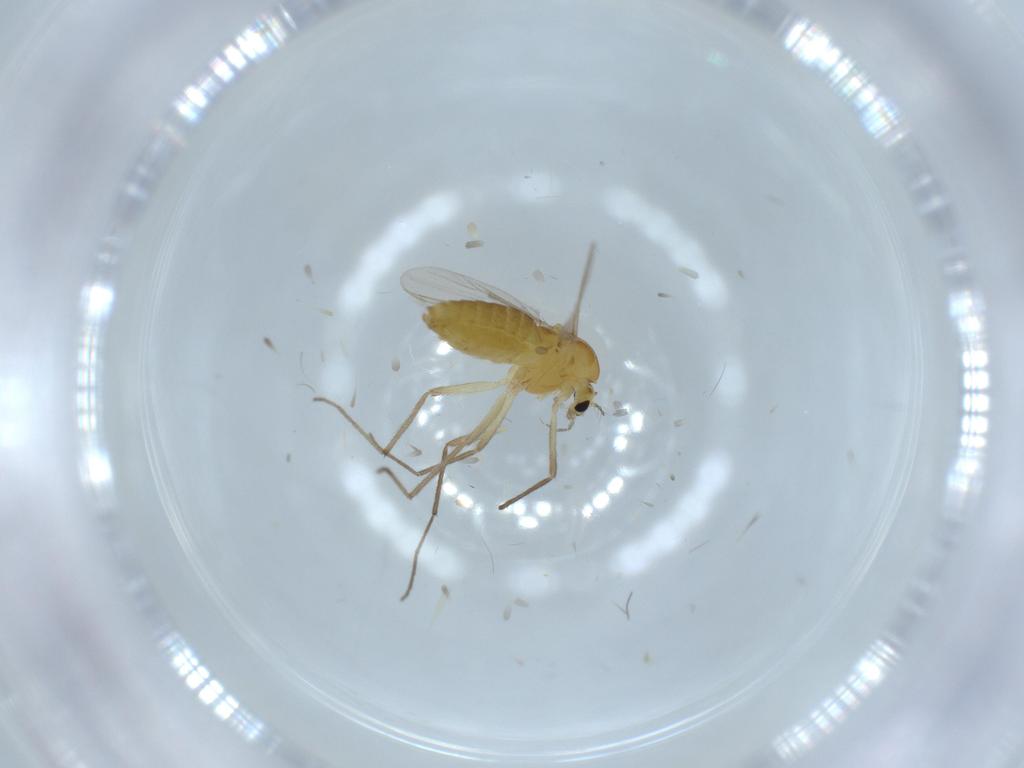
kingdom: Animalia
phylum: Arthropoda
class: Insecta
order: Diptera
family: Chironomidae
